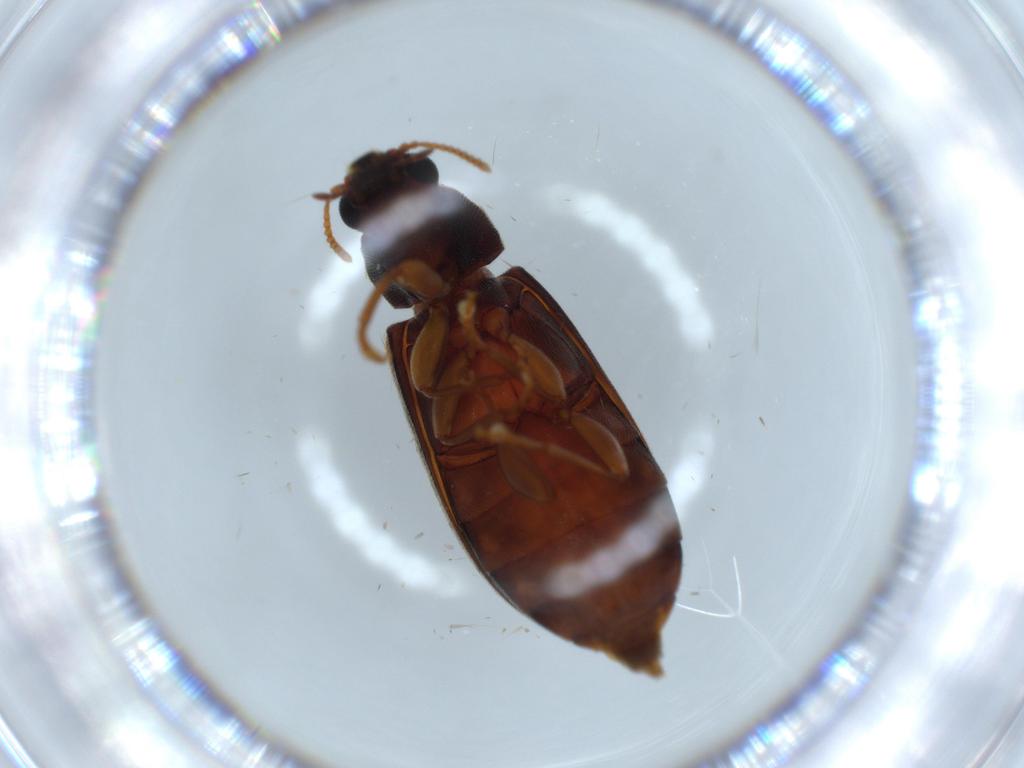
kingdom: Animalia
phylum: Arthropoda
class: Insecta
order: Coleoptera
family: Mycteridae
